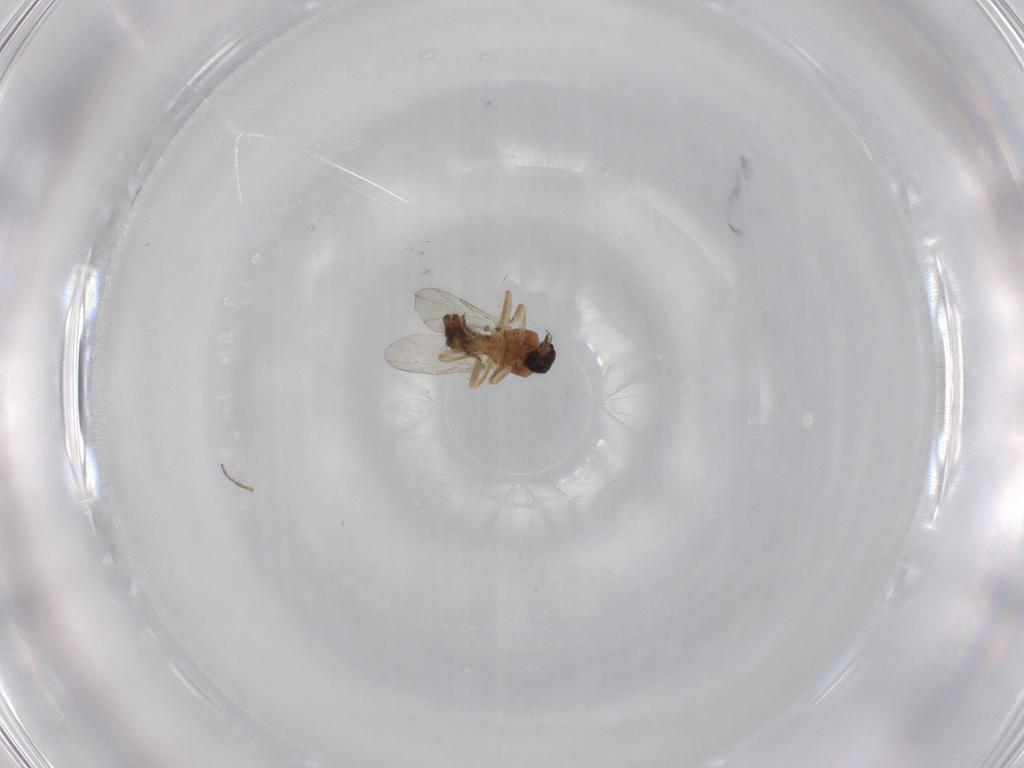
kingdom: Animalia
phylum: Arthropoda
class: Insecta
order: Diptera
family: Ceratopogonidae
